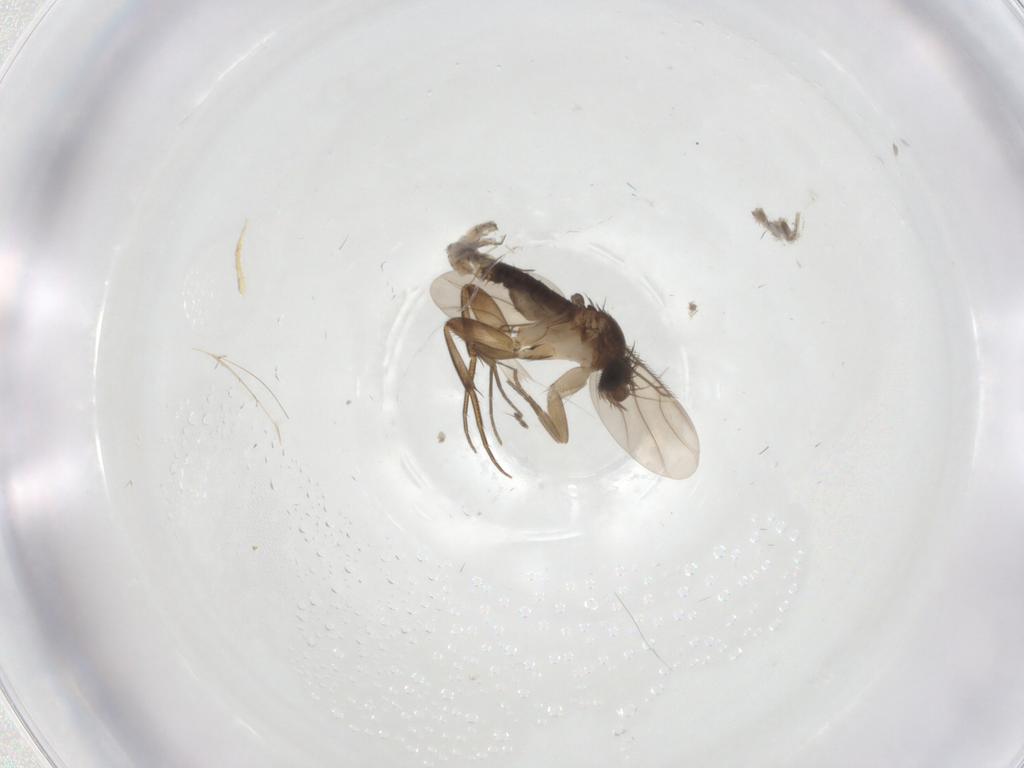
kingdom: Animalia
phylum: Arthropoda
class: Insecta
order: Diptera
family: Phoridae
